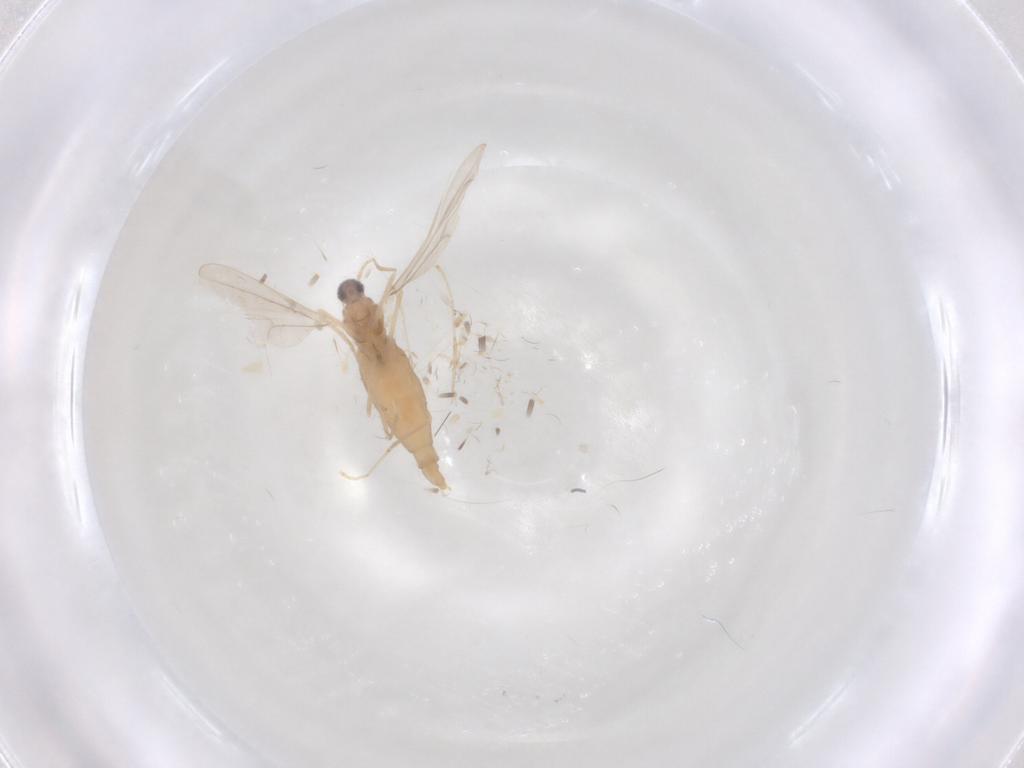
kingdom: Animalia
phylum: Arthropoda
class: Insecta
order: Diptera
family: Cecidomyiidae
